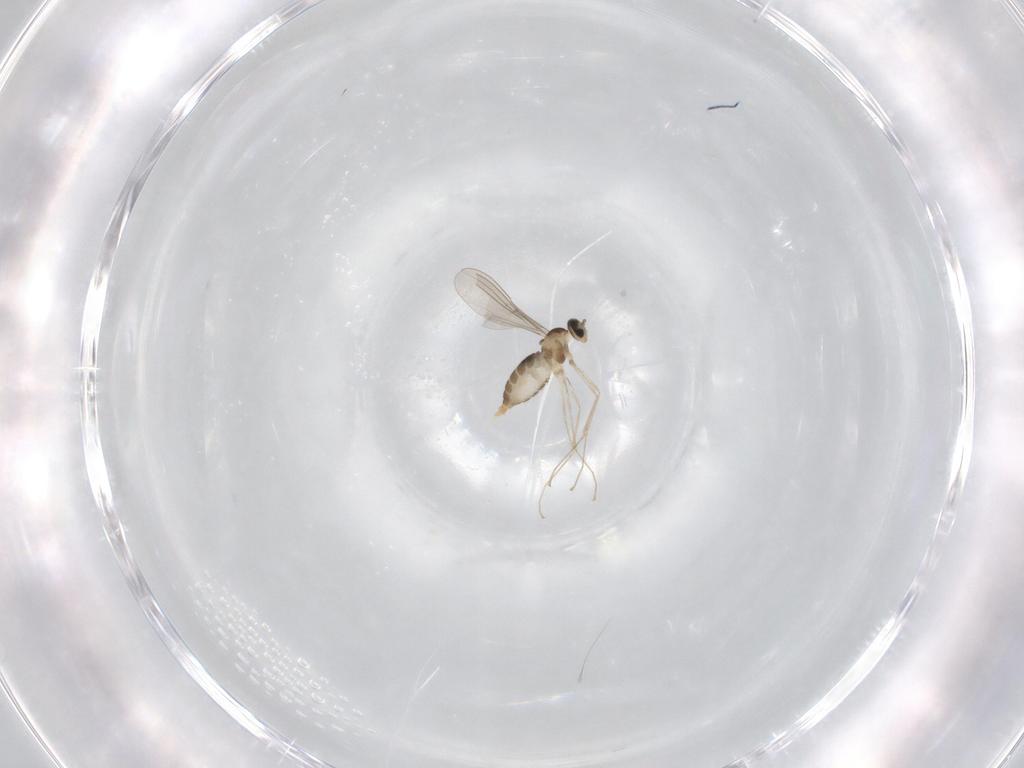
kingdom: Animalia
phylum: Arthropoda
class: Insecta
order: Diptera
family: Cecidomyiidae
